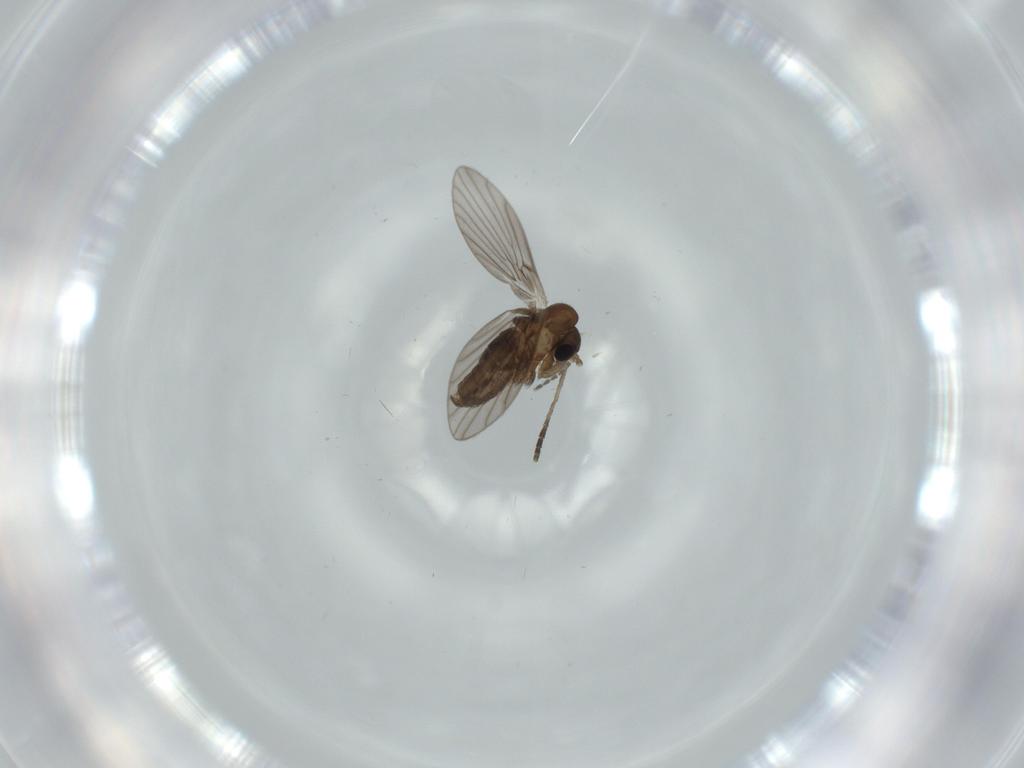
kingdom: Animalia
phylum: Arthropoda
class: Insecta
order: Diptera
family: Psychodidae
